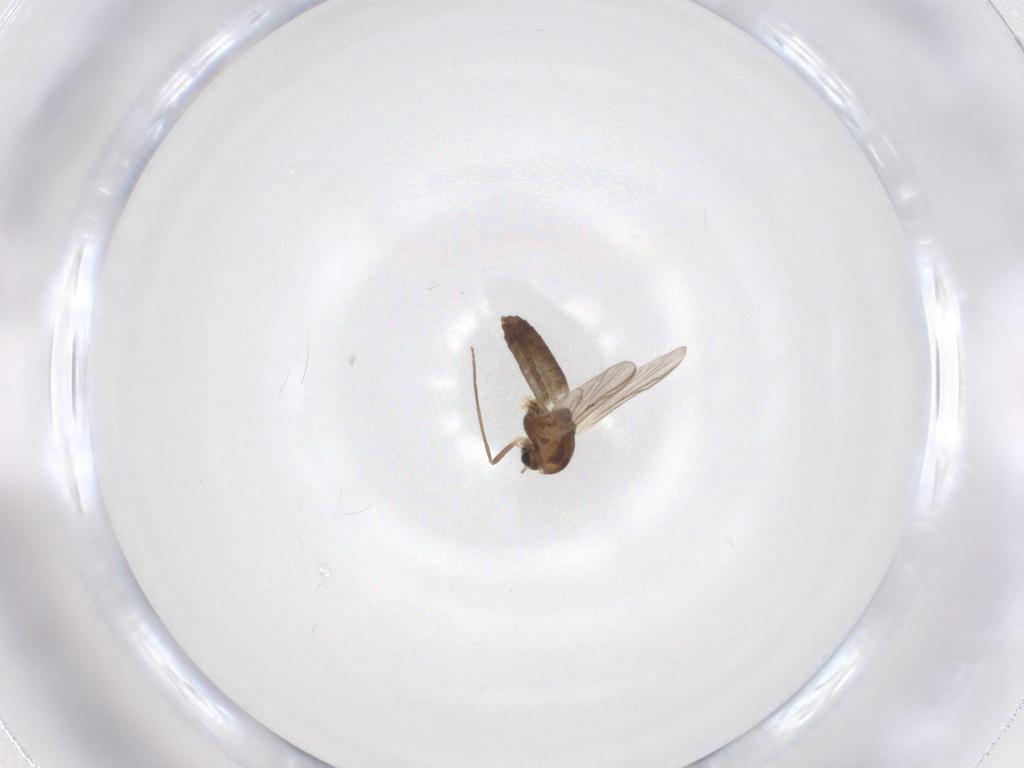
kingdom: Animalia
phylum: Arthropoda
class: Insecta
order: Diptera
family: Chironomidae
